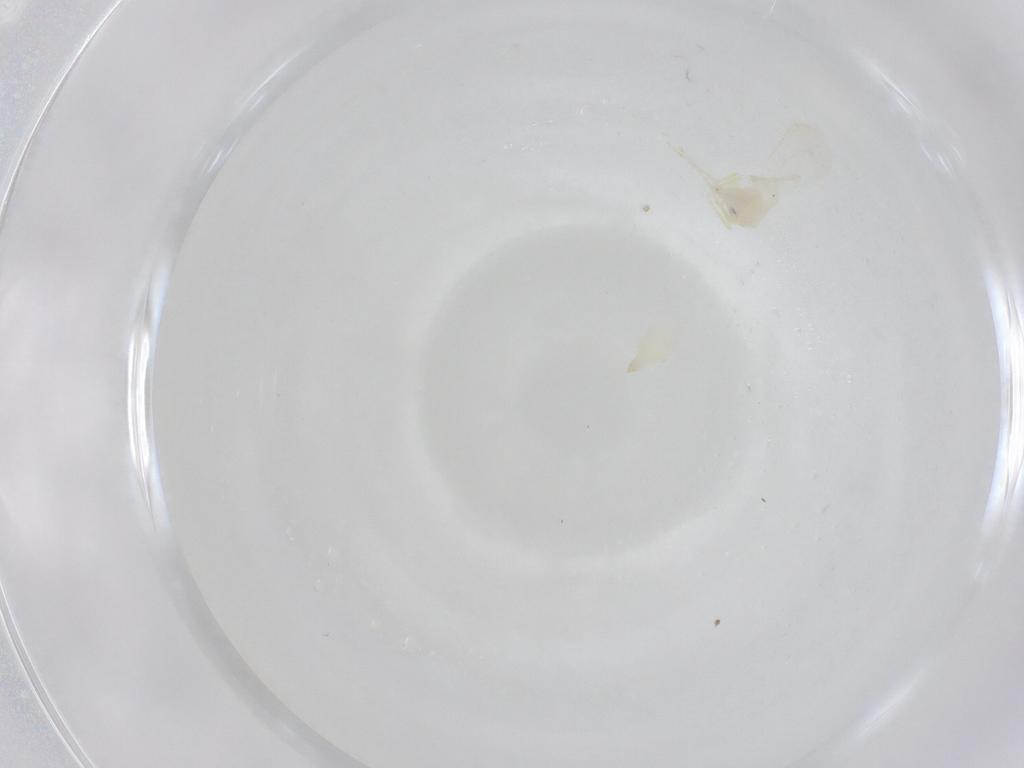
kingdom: Animalia
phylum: Arthropoda
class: Insecta
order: Hemiptera
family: Aleyrodidae
